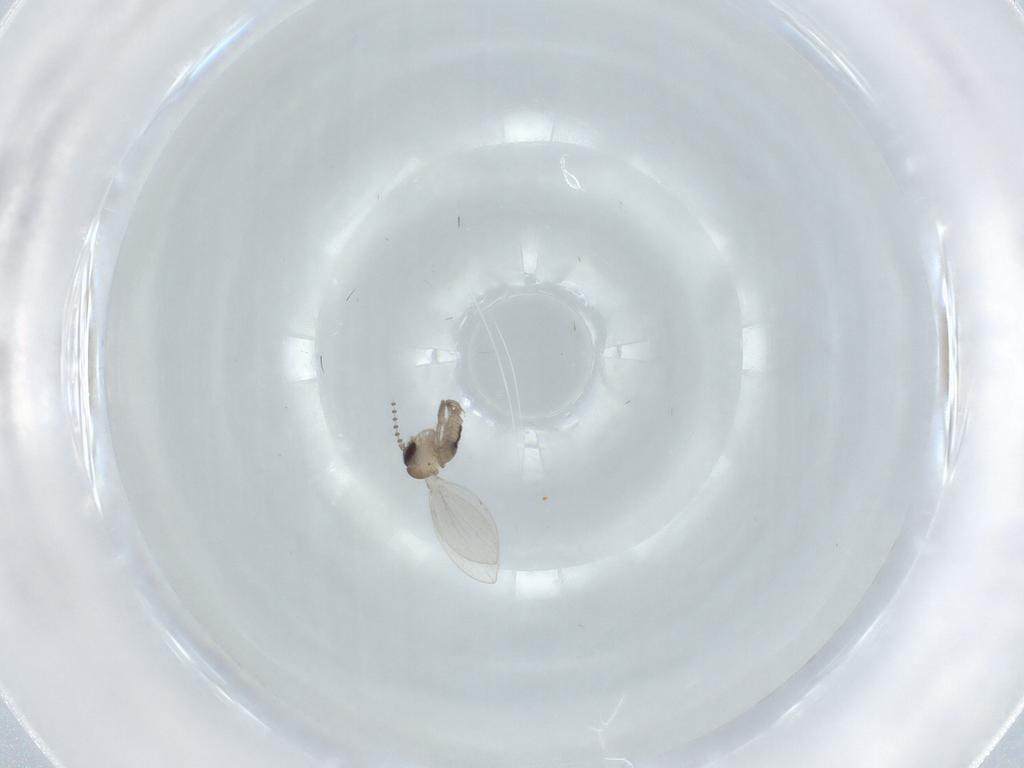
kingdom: Animalia
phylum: Arthropoda
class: Insecta
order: Diptera
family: Psychodidae
